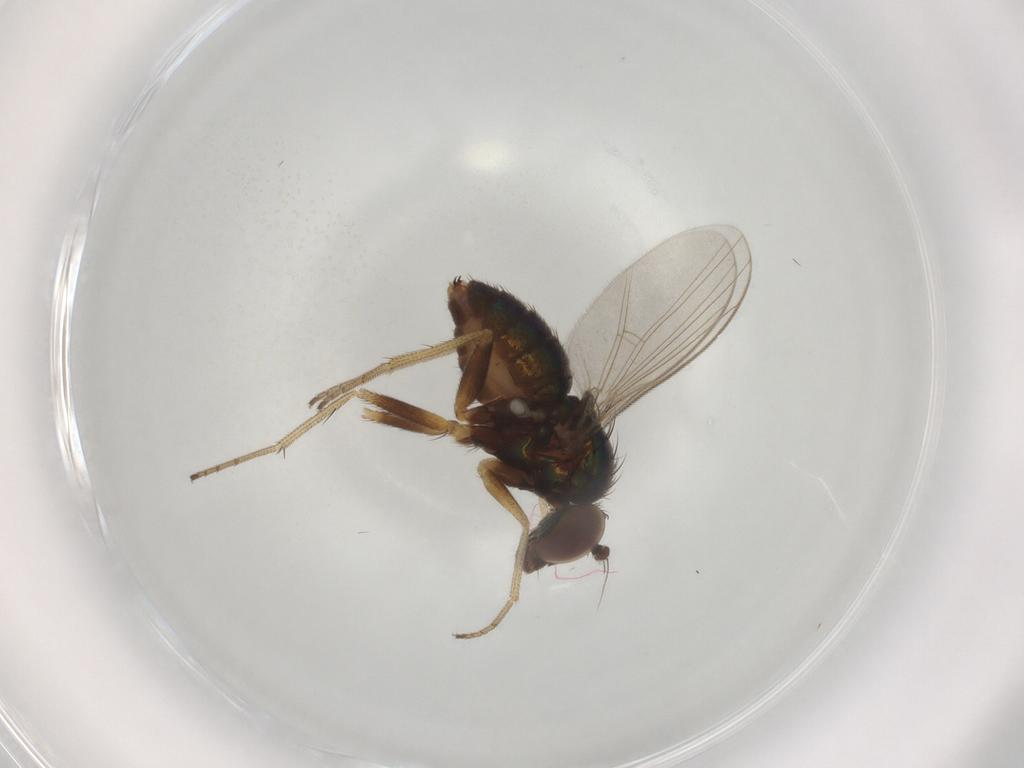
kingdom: Animalia
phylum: Arthropoda
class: Insecta
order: Diptera
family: Dolichopodidae
